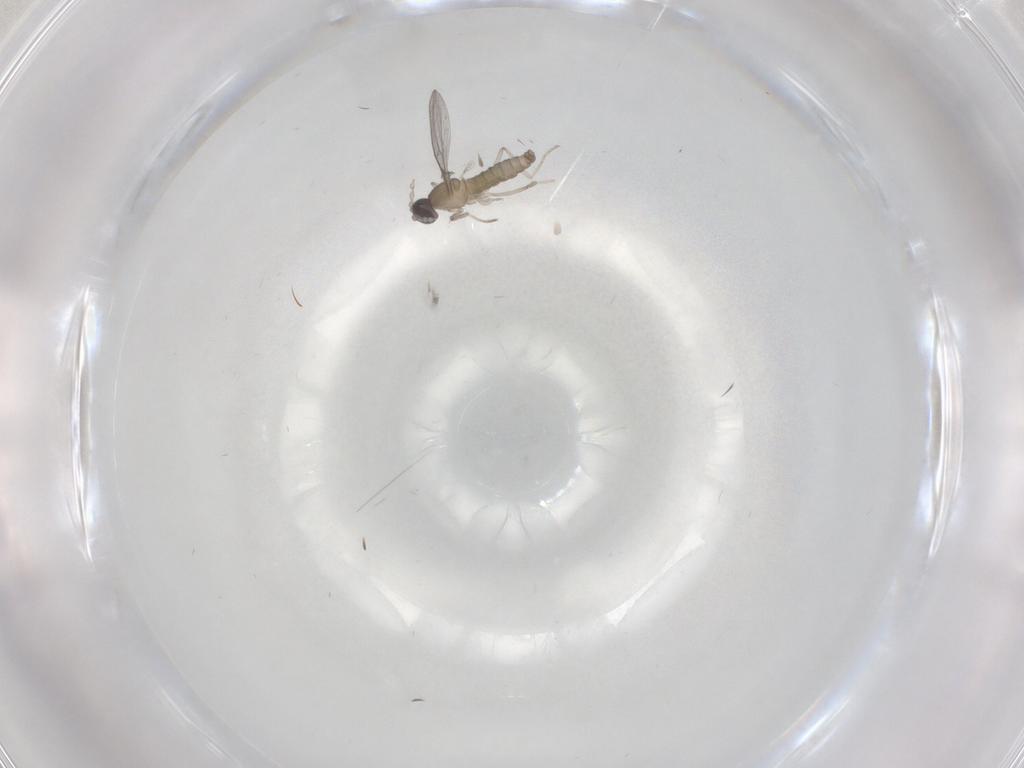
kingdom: Animalia
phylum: Arthropoda
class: Insecta
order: Diptera
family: Cecidomyiidae
